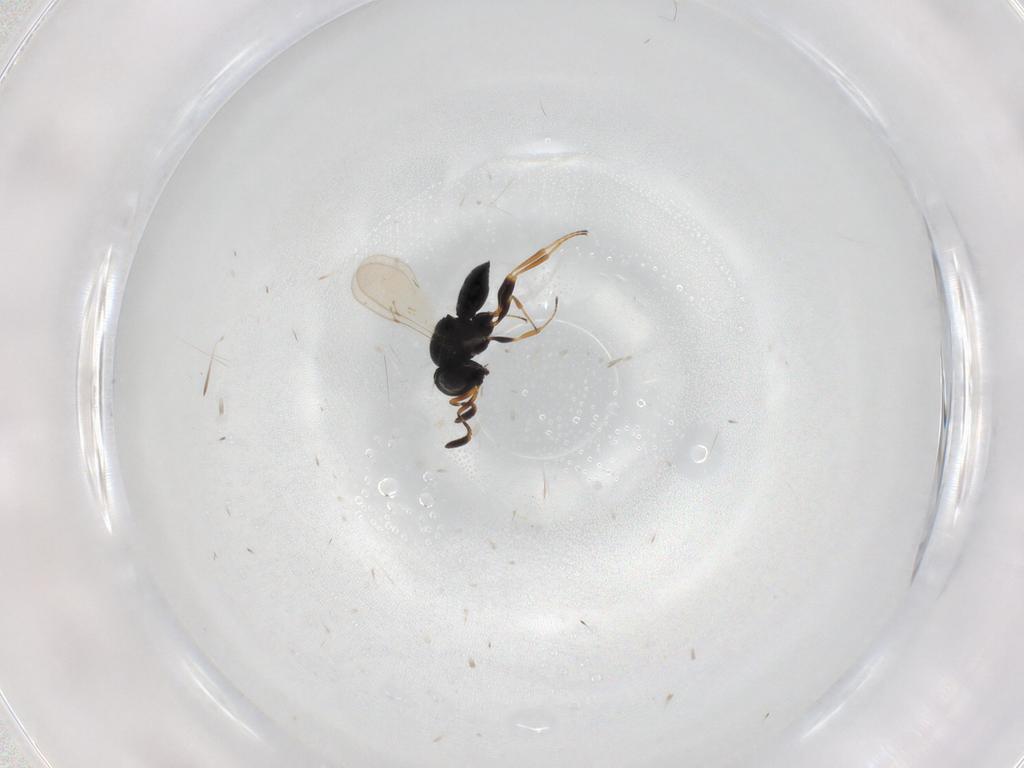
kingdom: Animalia
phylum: Arthropoda
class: Insecta
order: Coleoptera
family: Curculionidae
